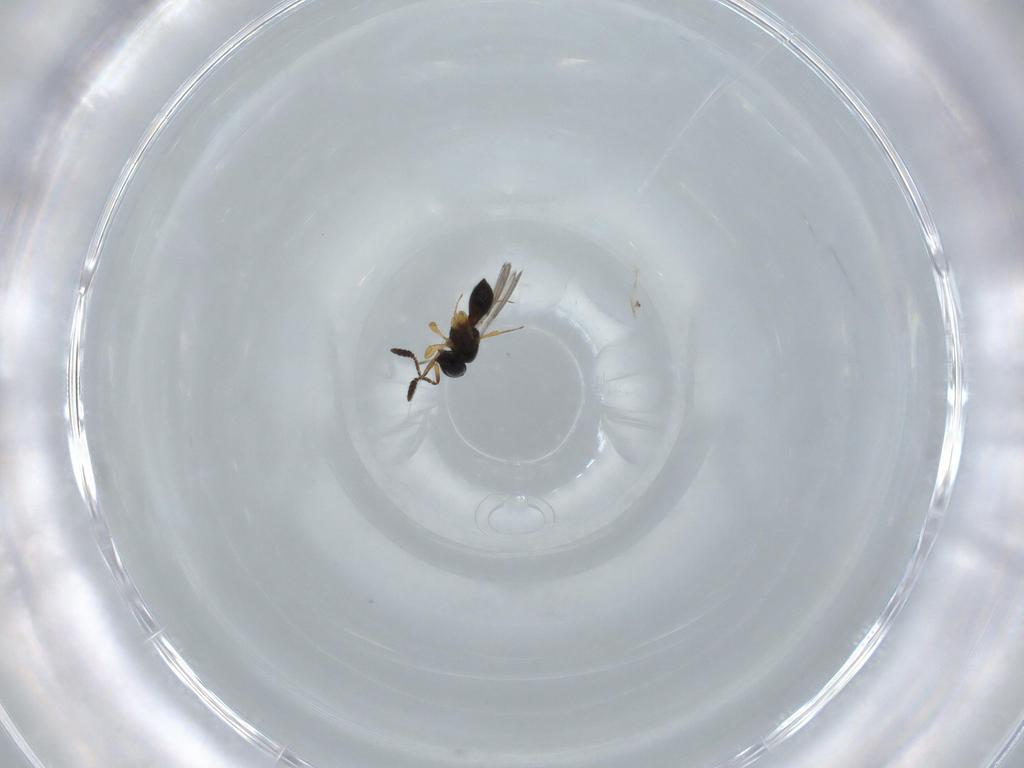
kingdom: Animalia
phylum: Arthropoda
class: Insecta
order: Hymenoptera
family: Scelionidae
